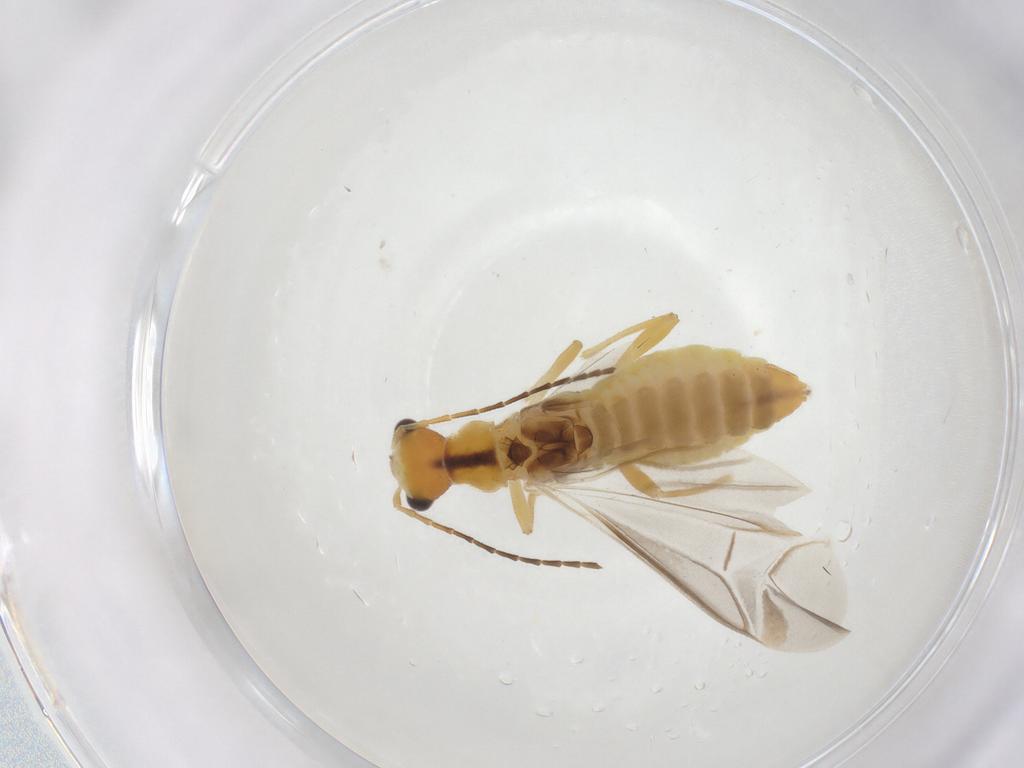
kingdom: Animalia
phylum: Arthropoda
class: Insecta
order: Coleoptera
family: Cantharidae
